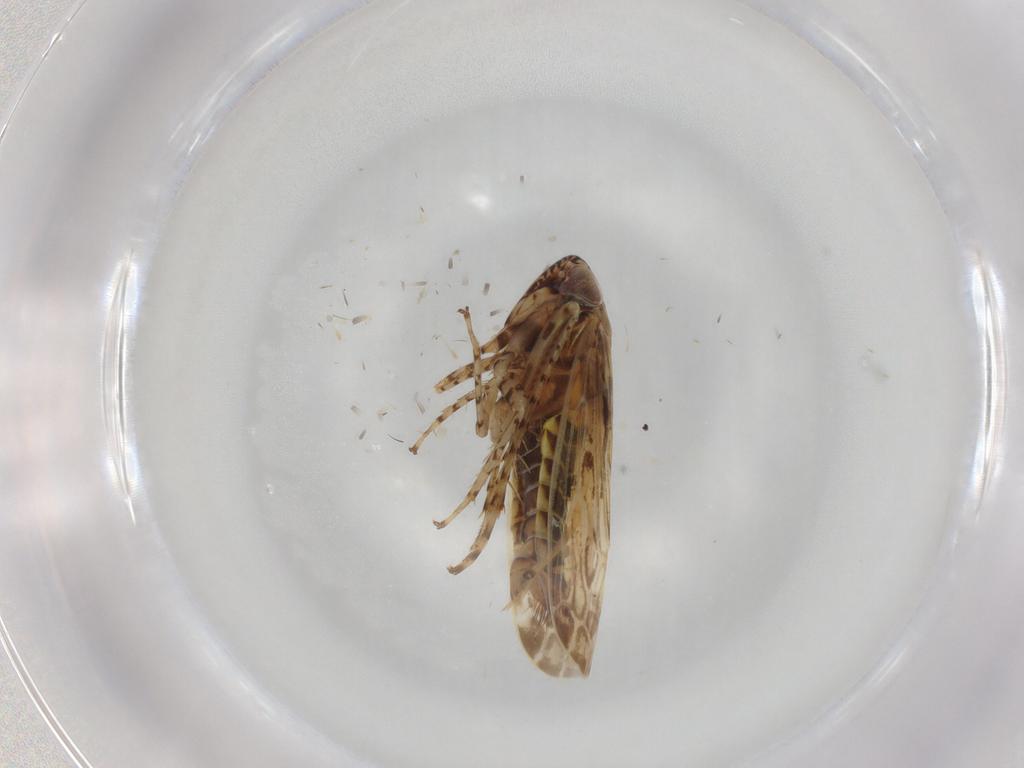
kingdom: Animalia
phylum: Arthropoda
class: Insecta
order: Hemiptera
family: Cicadellidae
